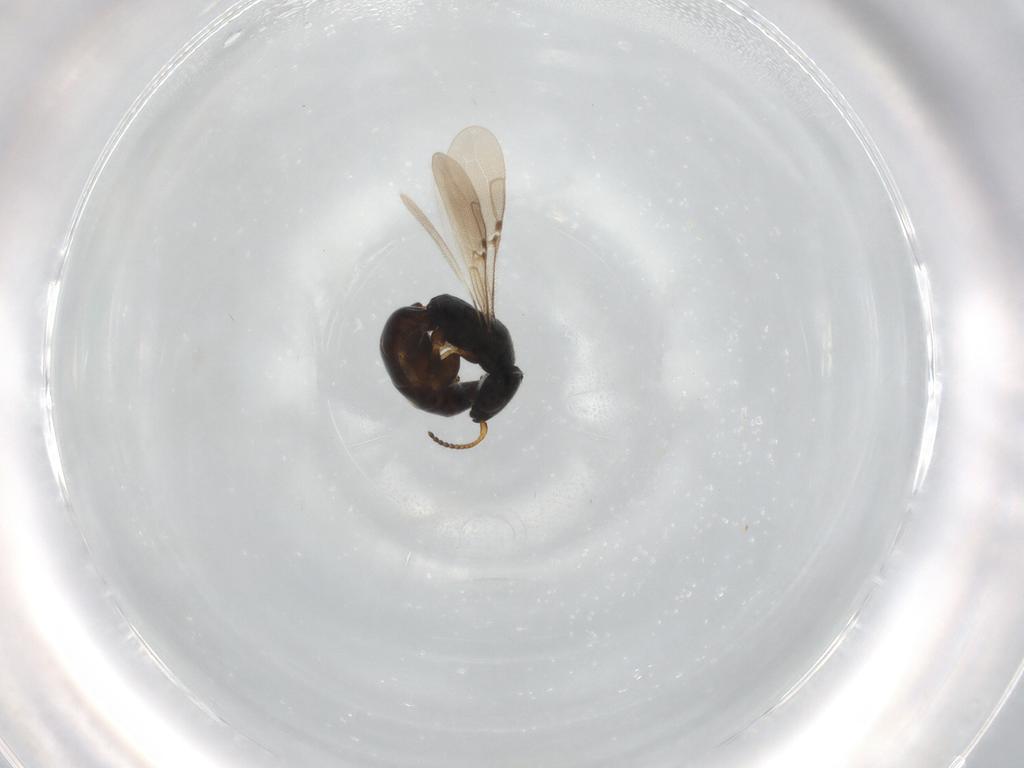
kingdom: Animalia
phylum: Arthropoda
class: Insecta
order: Hymenoptera
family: Bethylidae
